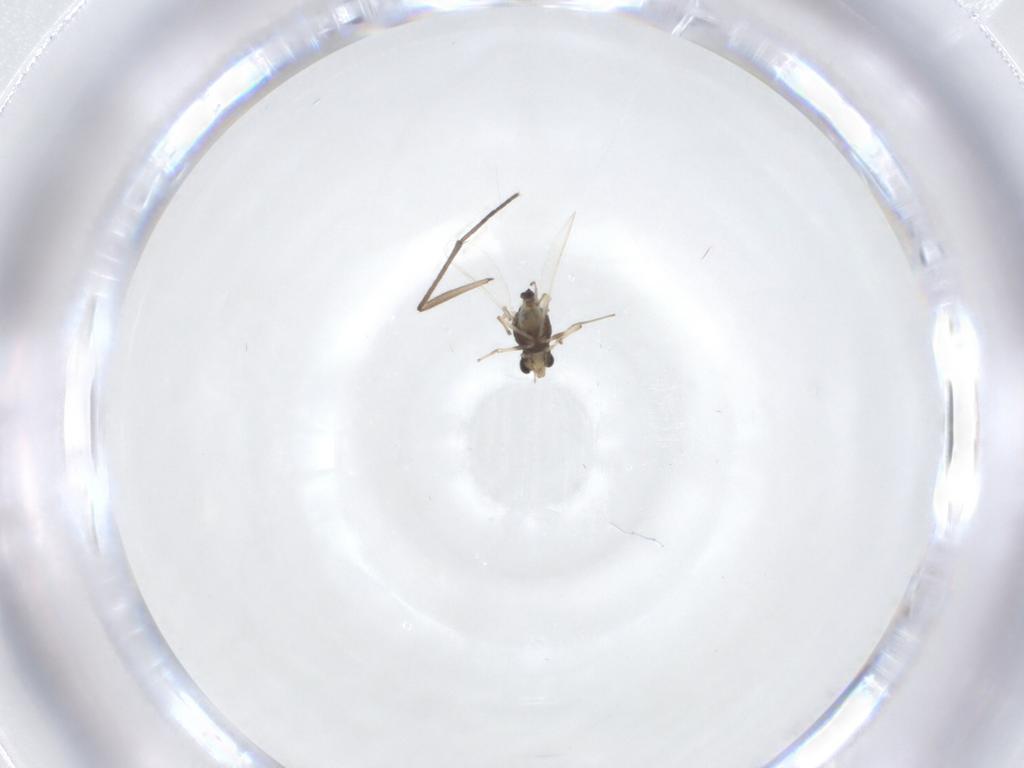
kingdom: Animalia
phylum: Arthropoda
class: Insecta
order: Diptera
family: Chironomidae
